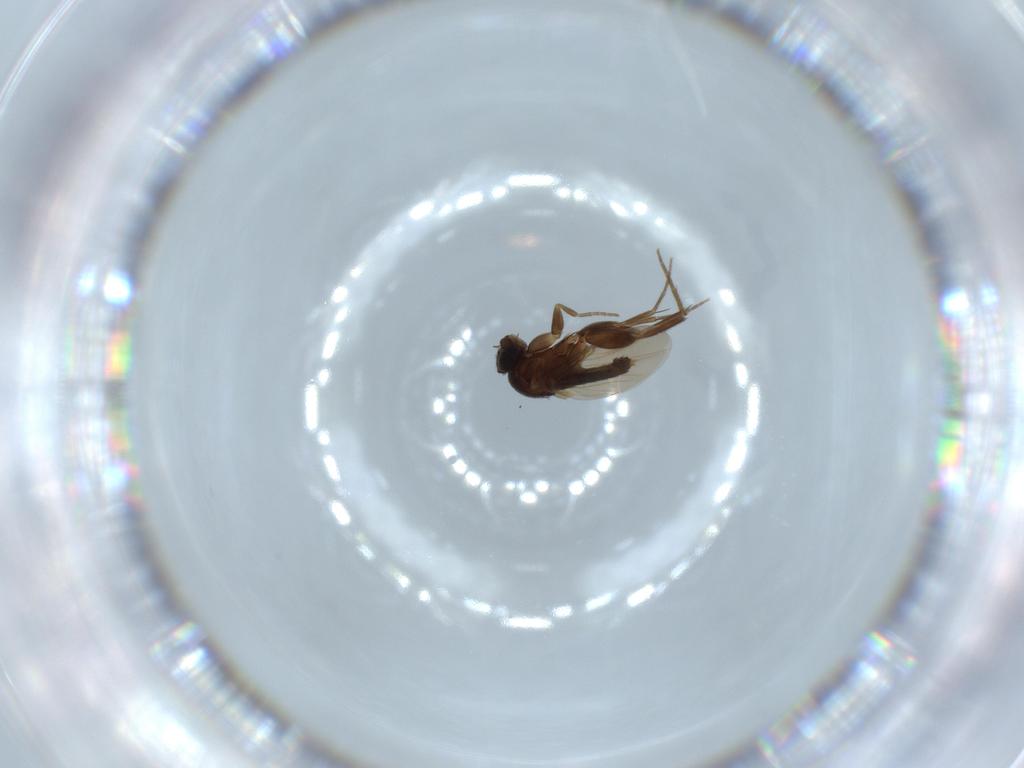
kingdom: Animalia
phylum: Arthropoda
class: Insecta
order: Diptera
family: Phoridae
